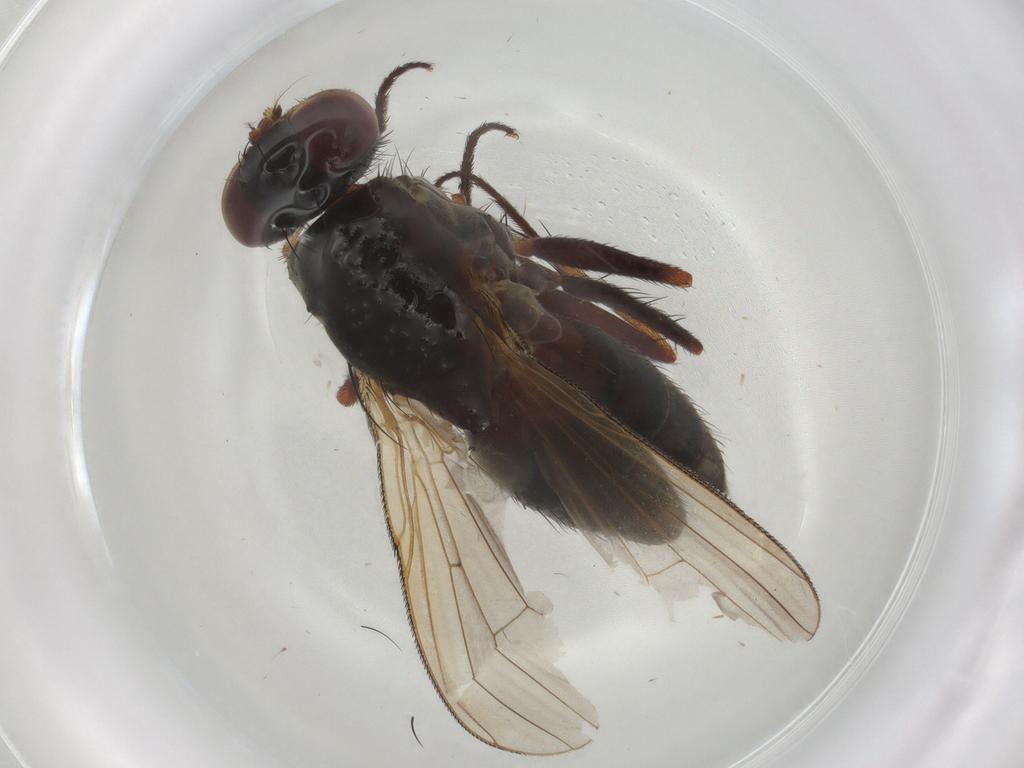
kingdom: Animalia
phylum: Arthropoda
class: Insecta
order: Diptera
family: Muscidae
